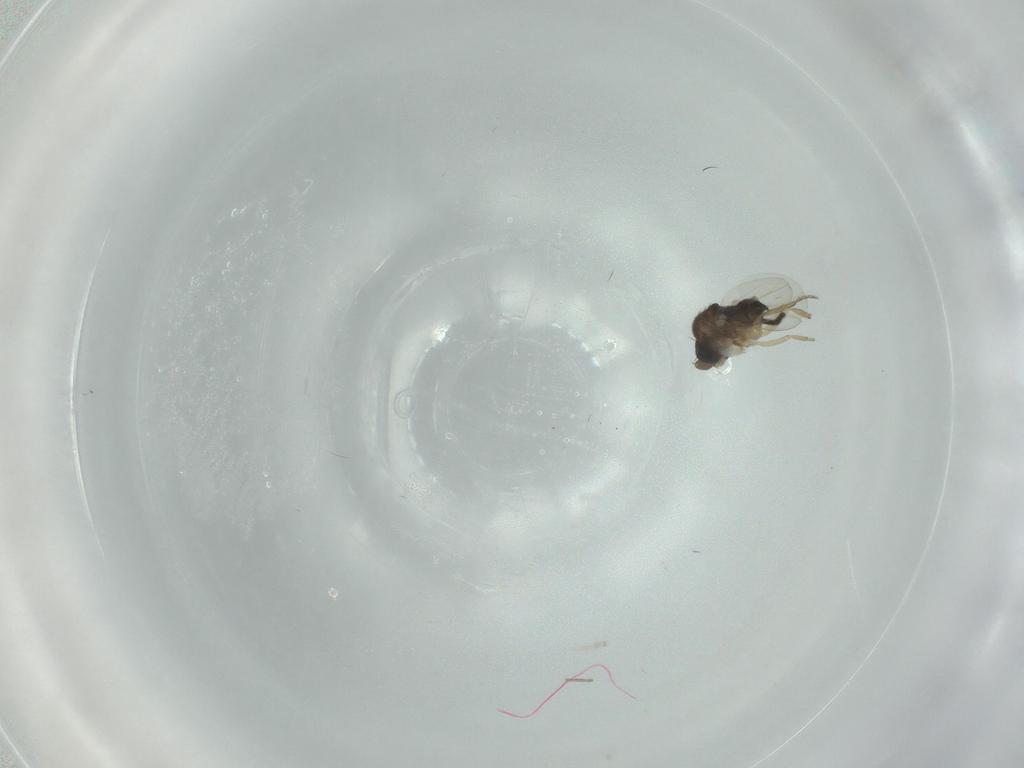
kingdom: Animalia
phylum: Arthropoda
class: Insecta
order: Diptera
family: Phoridae
